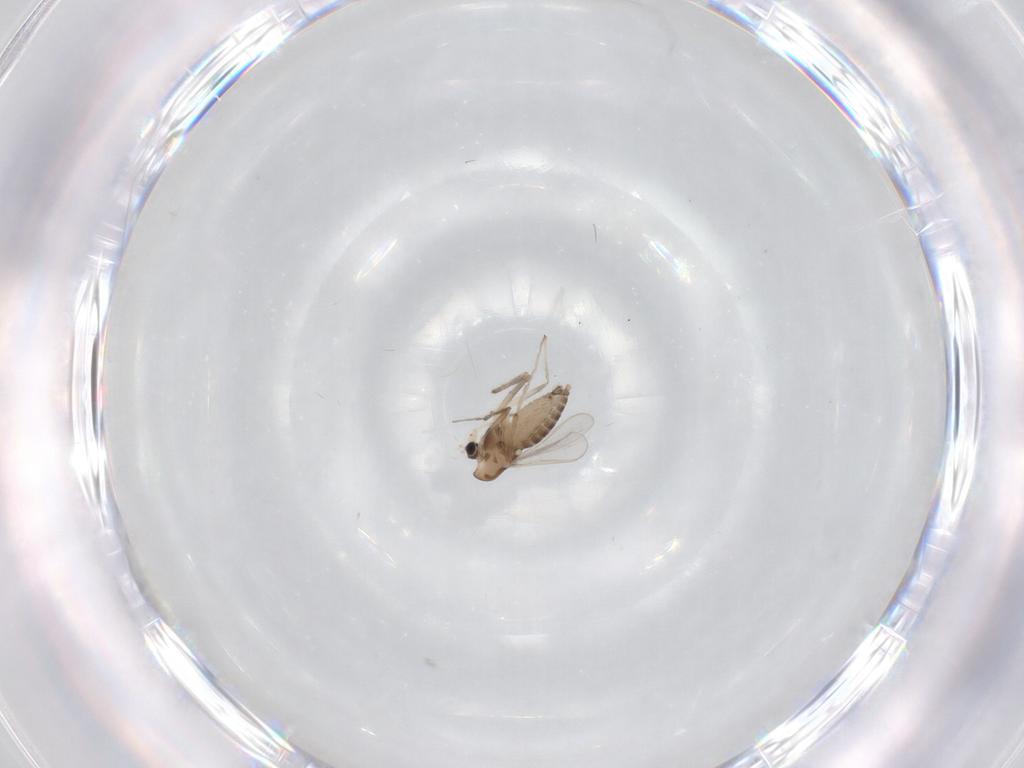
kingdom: Animalia
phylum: Arthropoda
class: Insecta
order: Diptera
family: Chironomidae
